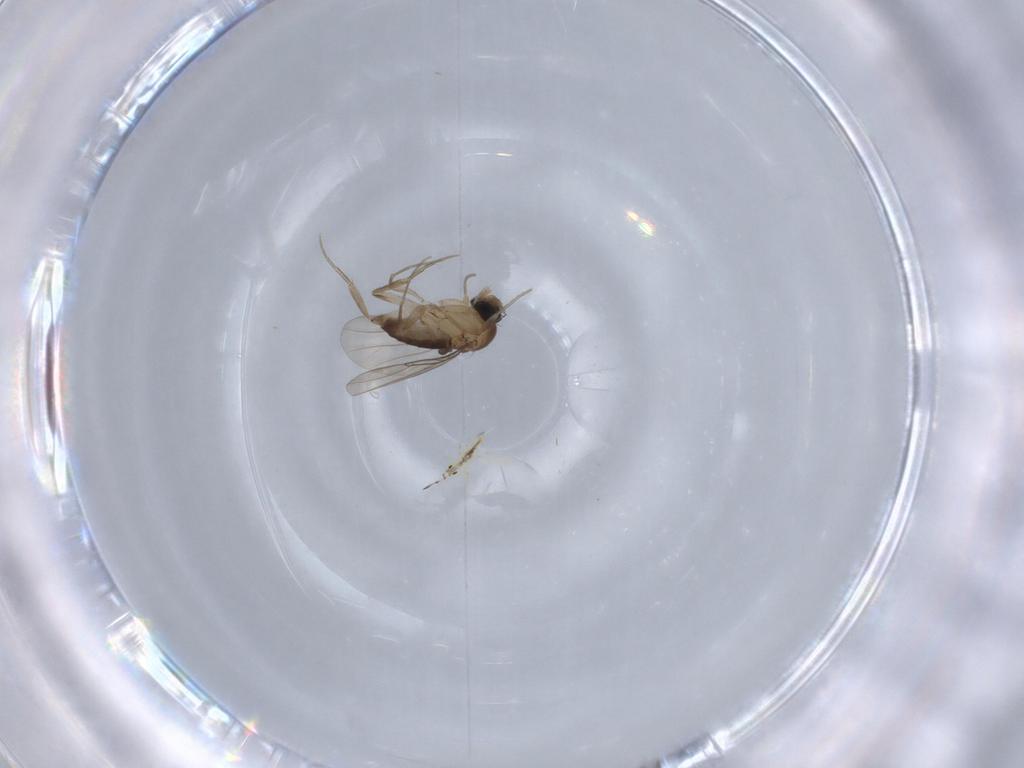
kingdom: Animalia
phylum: Arthropoda
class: Insecta
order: Diptera
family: Phoridae
